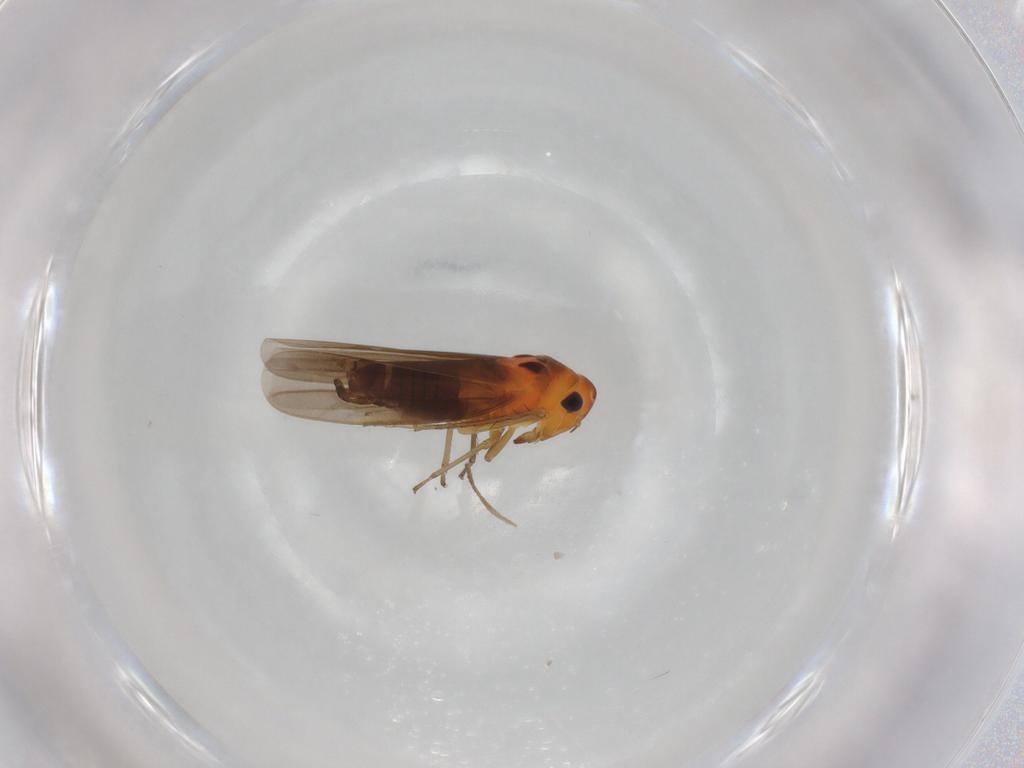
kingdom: Animalia
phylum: Arthropoda
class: Insecta
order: Hemiptera
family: Cicadellidae
